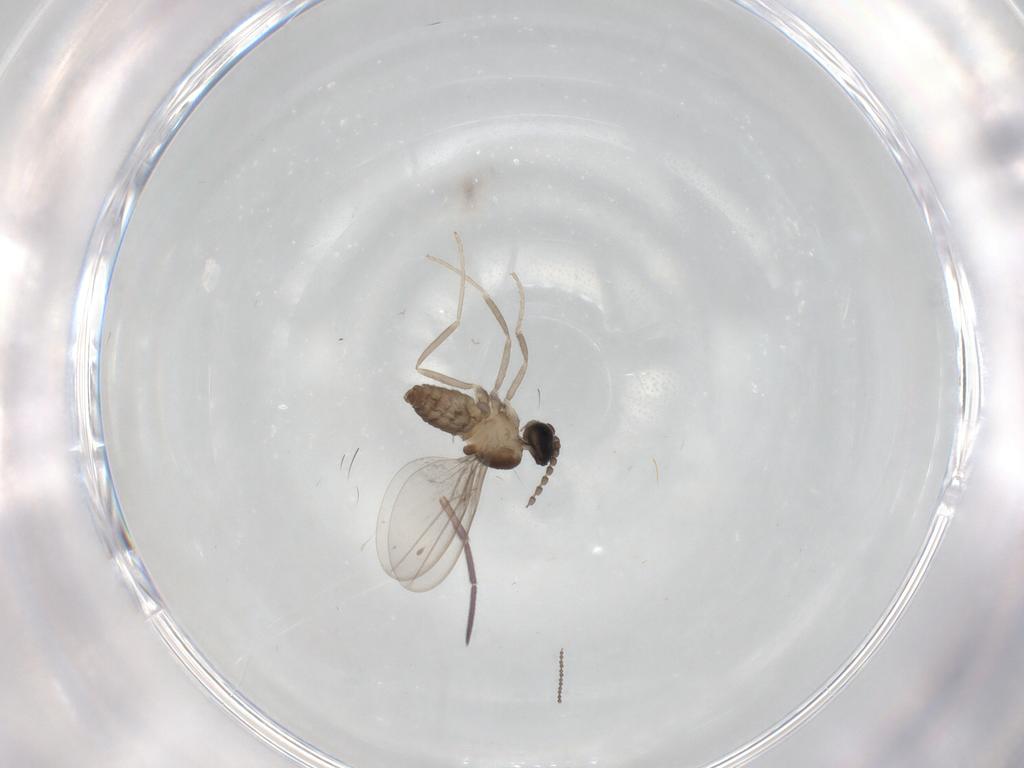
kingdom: Animalia
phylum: Arthropoda
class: Insecta
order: Diptera
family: Cecidomyiidae
